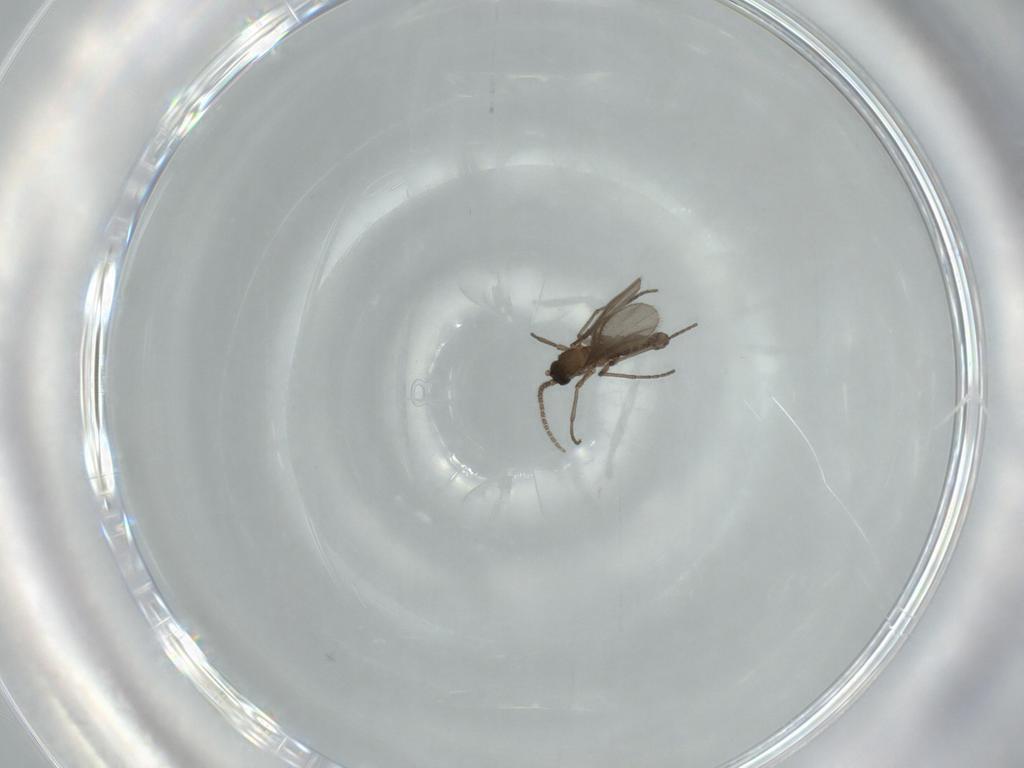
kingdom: Animalia
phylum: Arthropoda
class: Insecta
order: Diptera
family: Sciaridae
